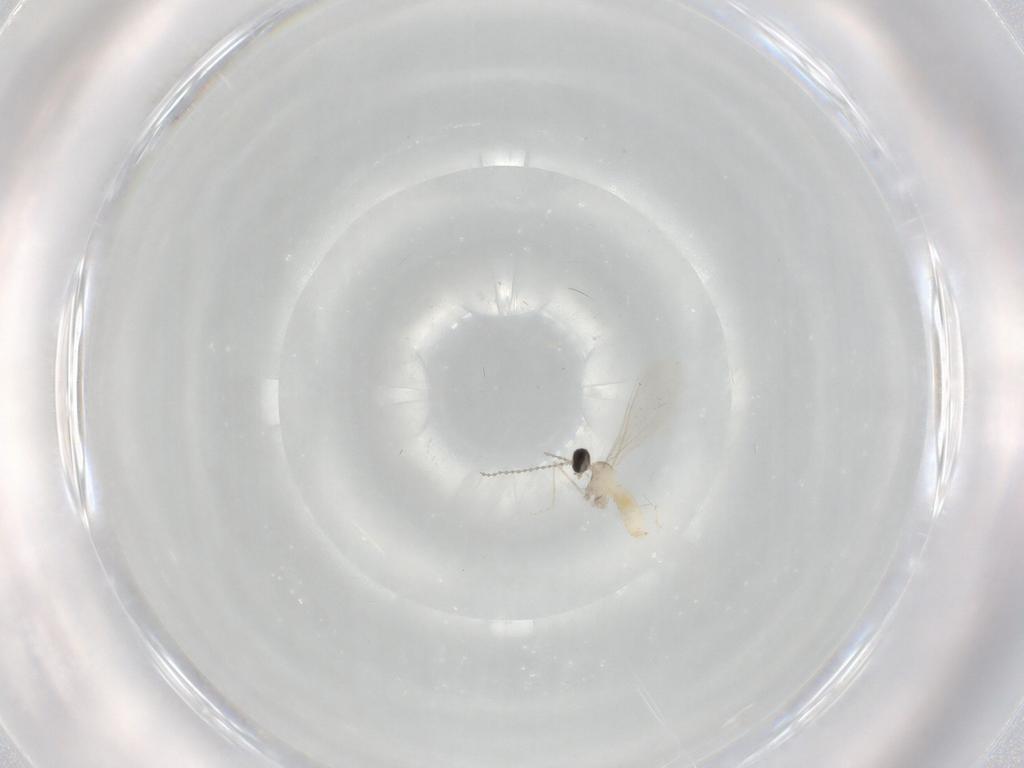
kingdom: Animalia
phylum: Arthropoda
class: Insecta
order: Diptera
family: Cecidomyiidae
